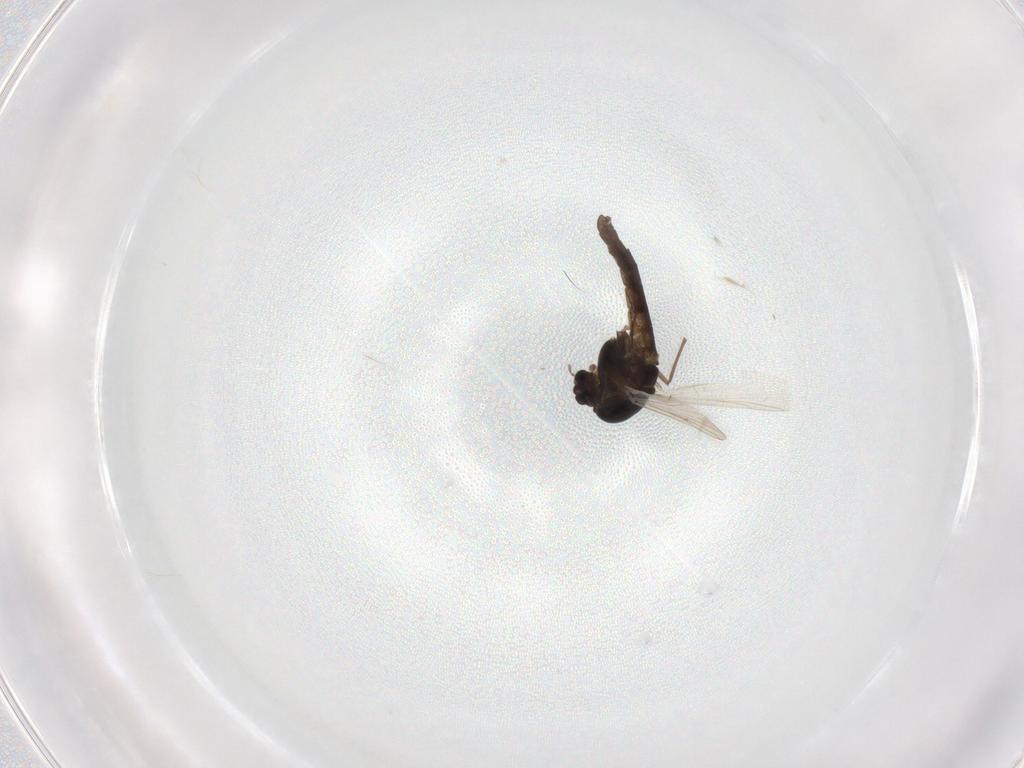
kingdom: Animalia
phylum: Arthropoda
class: Insecta
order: Diptera
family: Chironomidae
